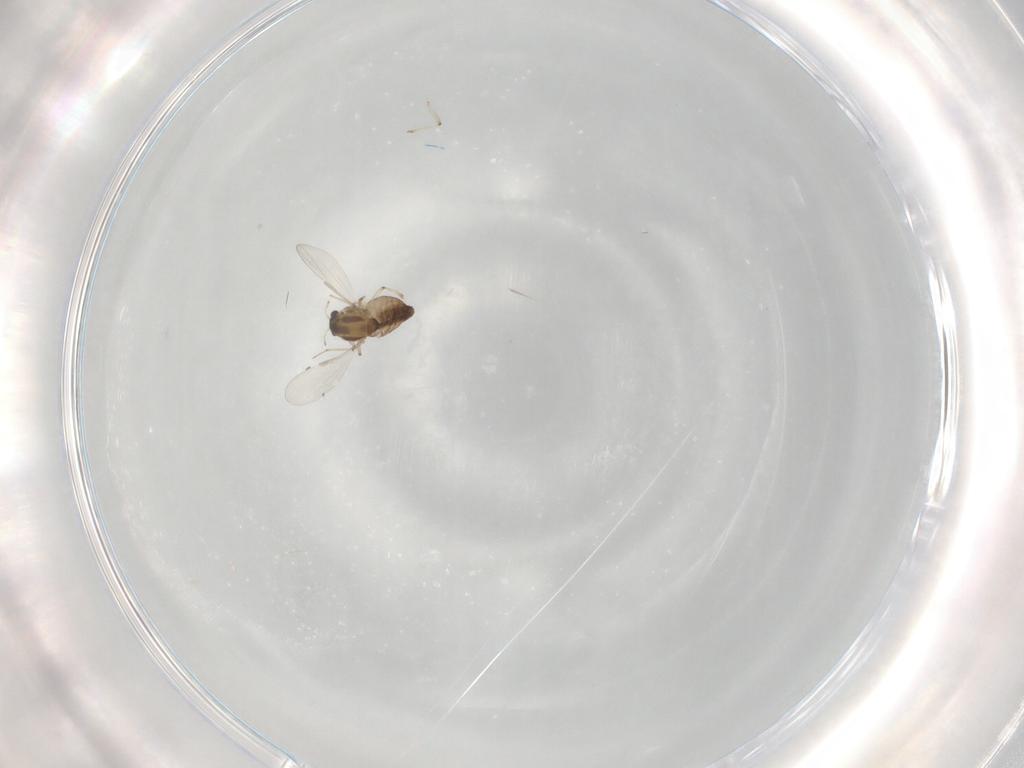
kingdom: Animalia
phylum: Arthropoda
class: Insecta
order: Diptera
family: Chironomidae
